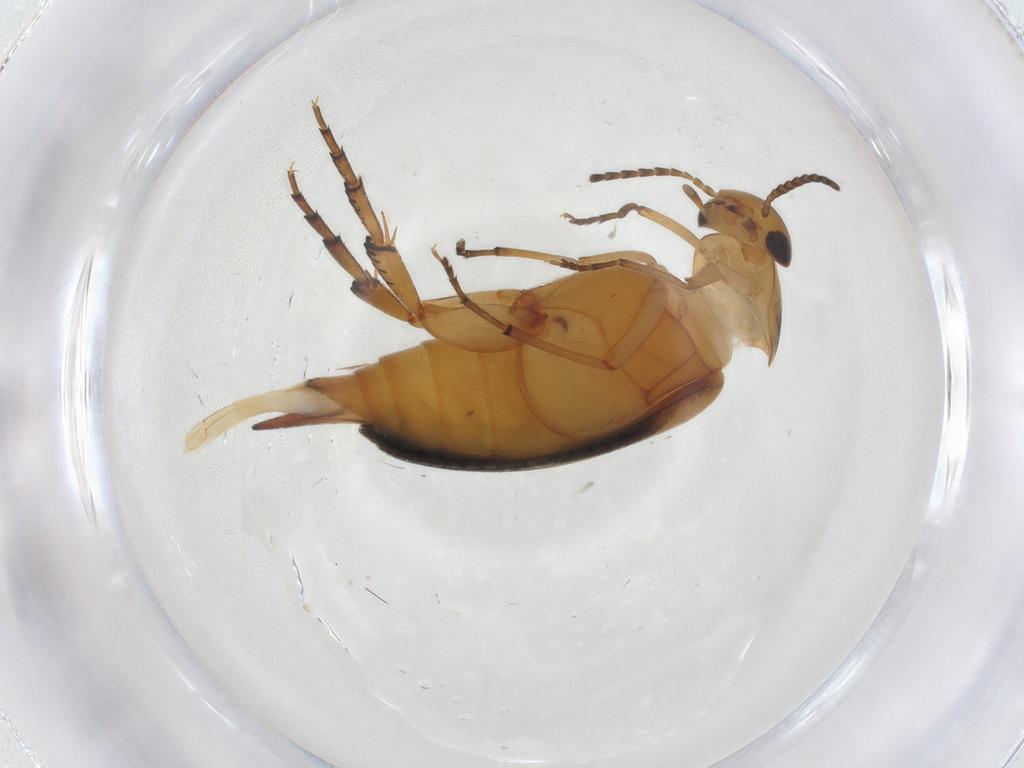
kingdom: Animalia
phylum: Arthropoda
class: Insecta
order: Coleoptera
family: Mordellidae
